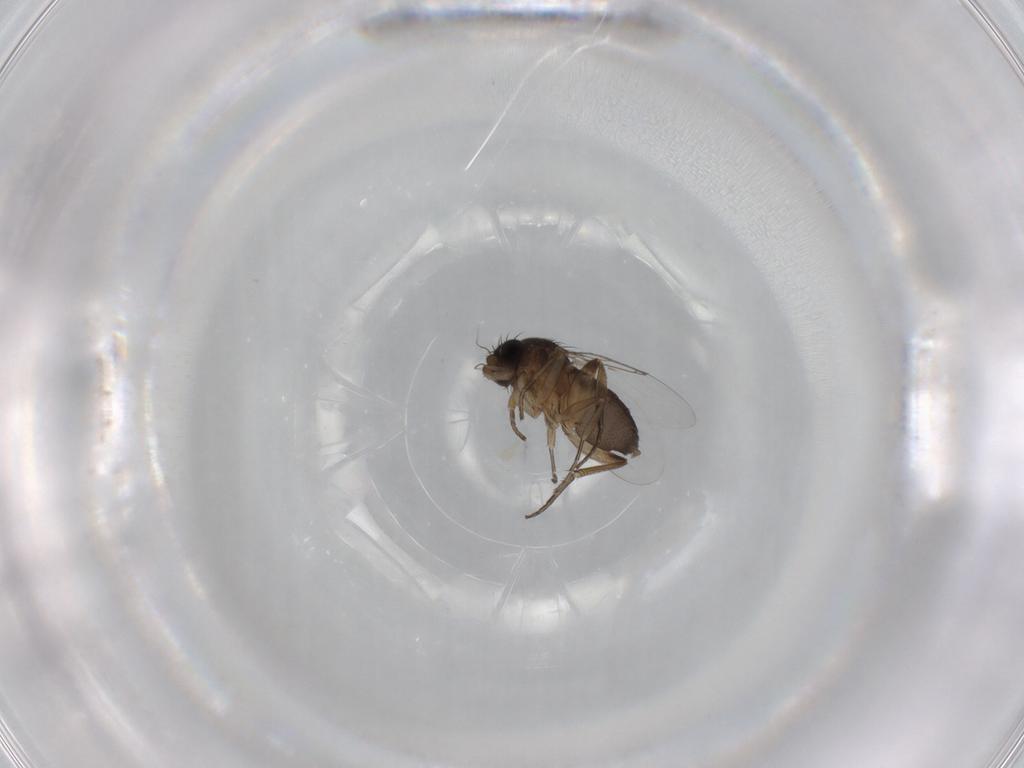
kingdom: Animalia
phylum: Arthropoda
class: Insecta
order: Diptera
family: Phoridae
